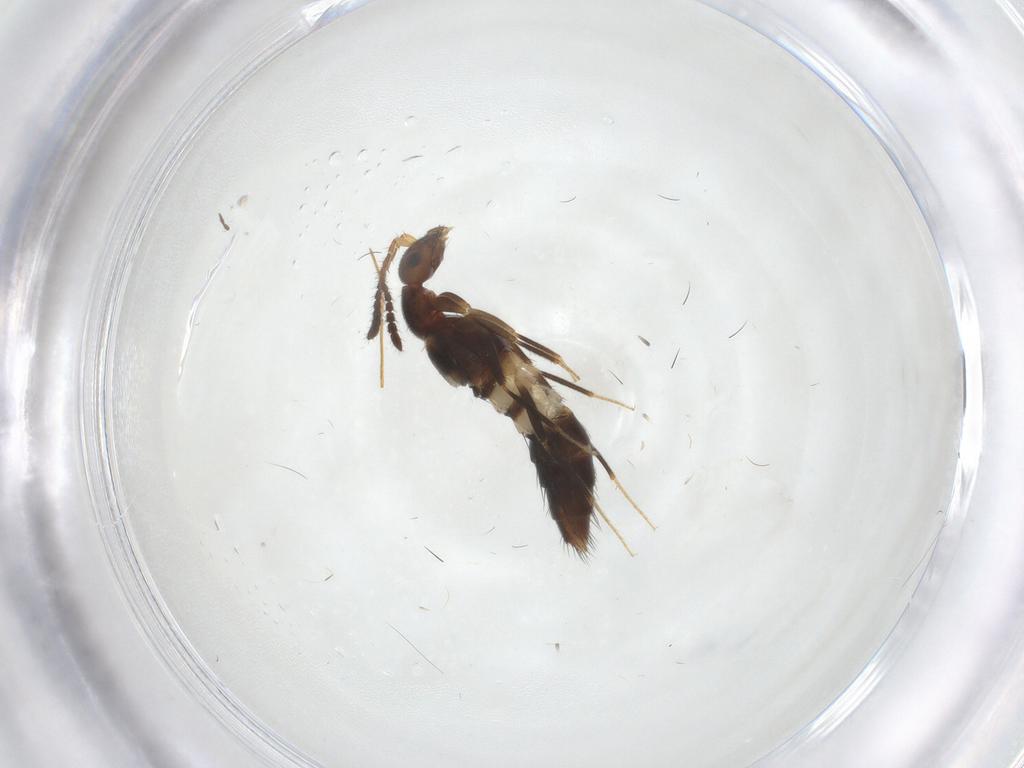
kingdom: Animalia
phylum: Arthropoda
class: Insecta
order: Coleoptera
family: Staphylinidae
